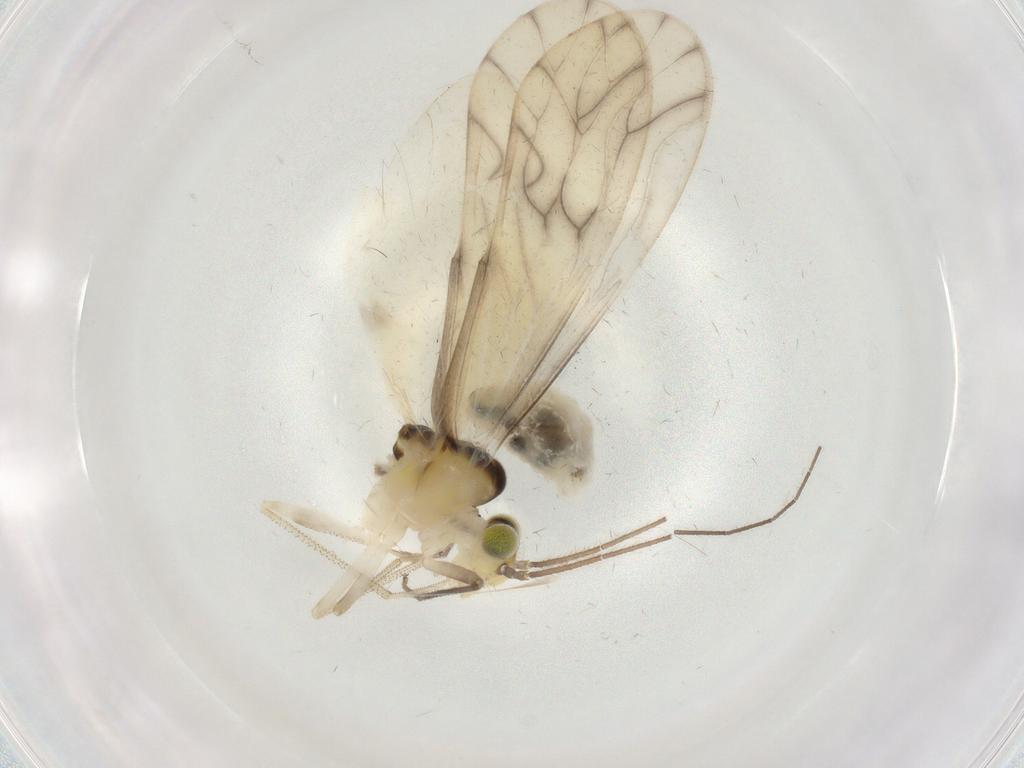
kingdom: Animalia
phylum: Arthropoda
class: Insecta
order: Psocodea
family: Caeciliusidae
